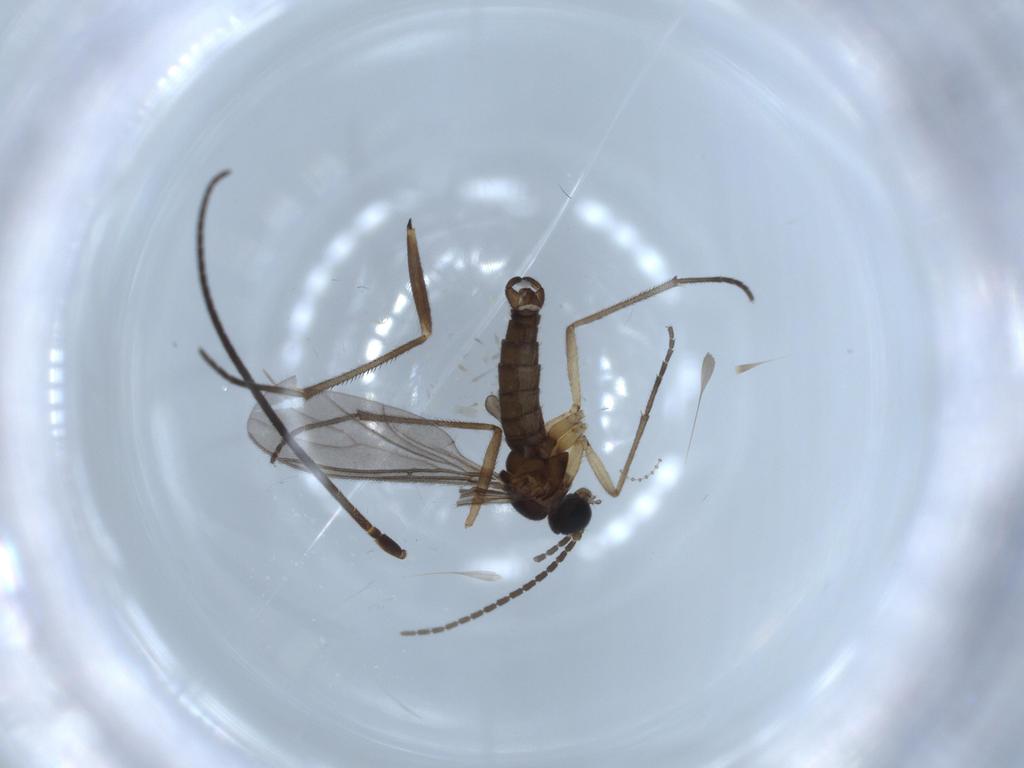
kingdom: Animalia
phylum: Arthropoda
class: Insecta
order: Diptera
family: Sciaridae
